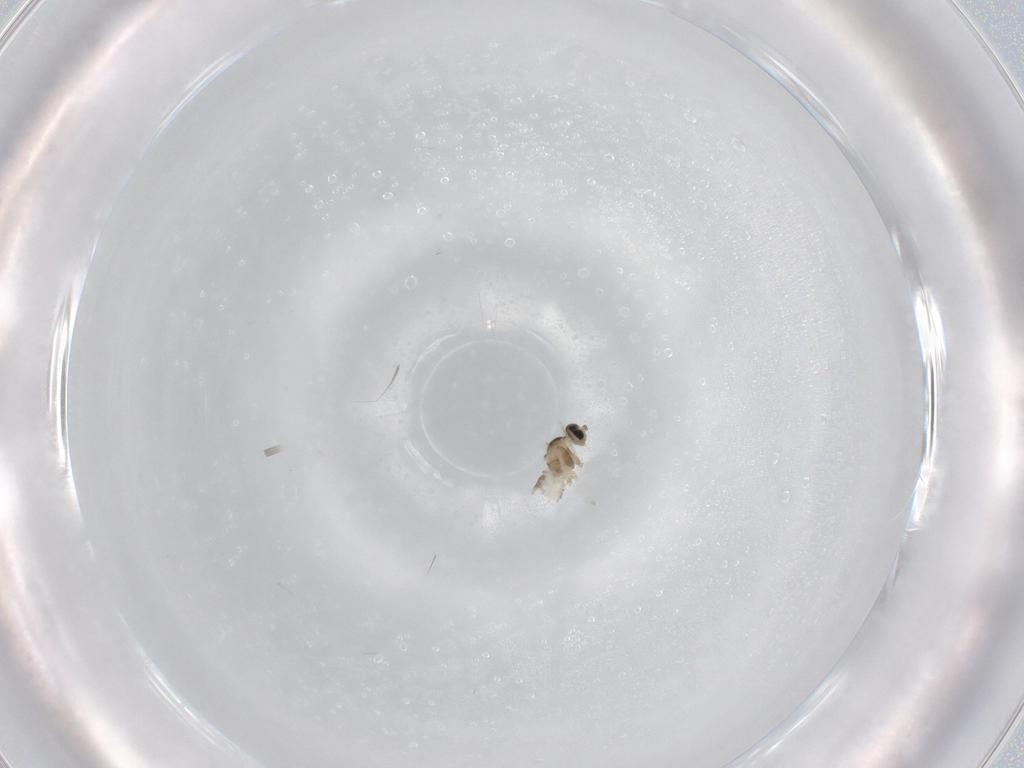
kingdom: Animalia
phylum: Arthropoda
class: Insecta
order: Diptera
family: Cecidomyiidae
